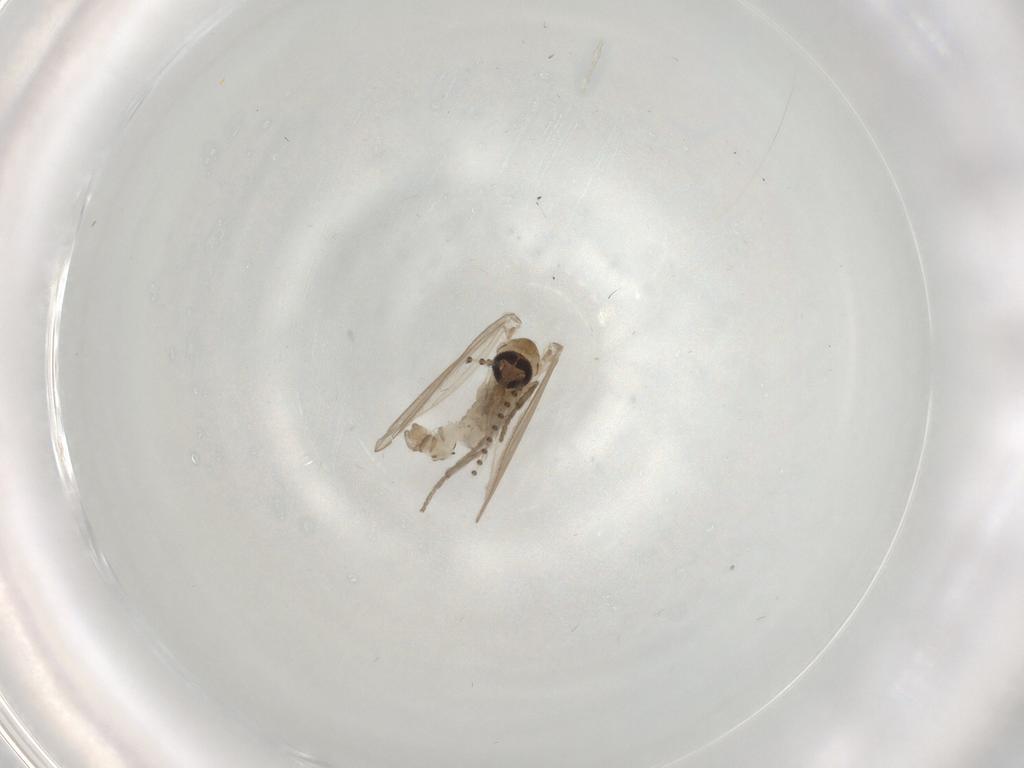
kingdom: Animalia
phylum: Arthropoda
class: Insecta
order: Diptera
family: Psychodidae
